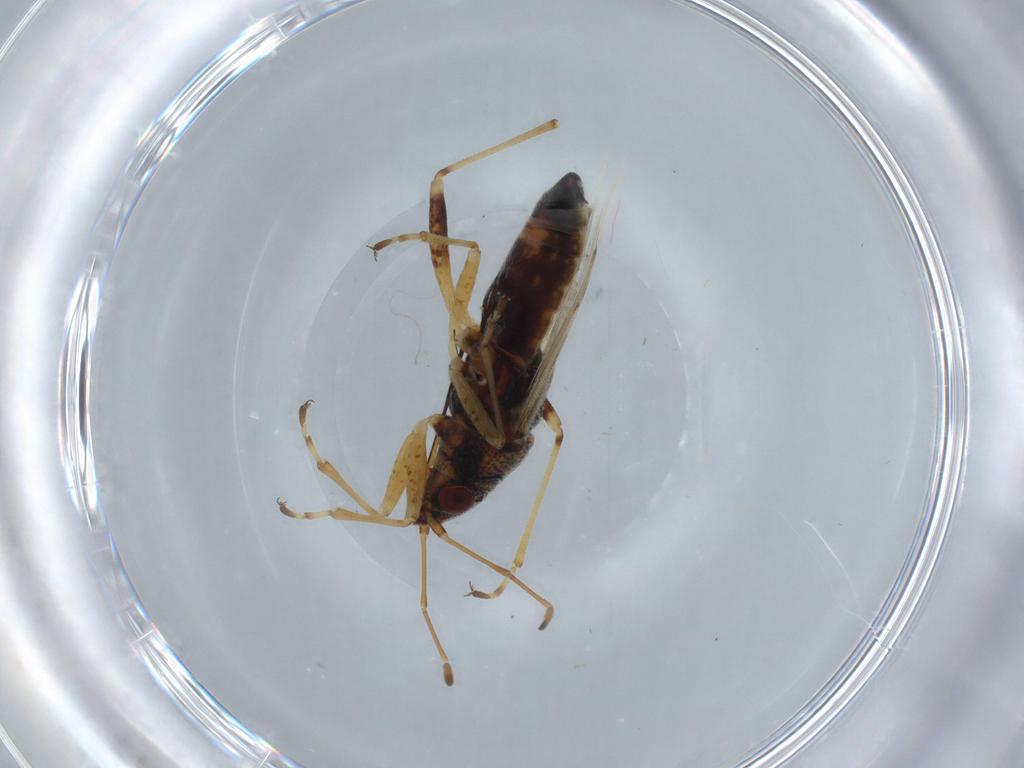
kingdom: Animalia
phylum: Arthropoda
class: Insecta
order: Hemiptera
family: Lygaeidae
